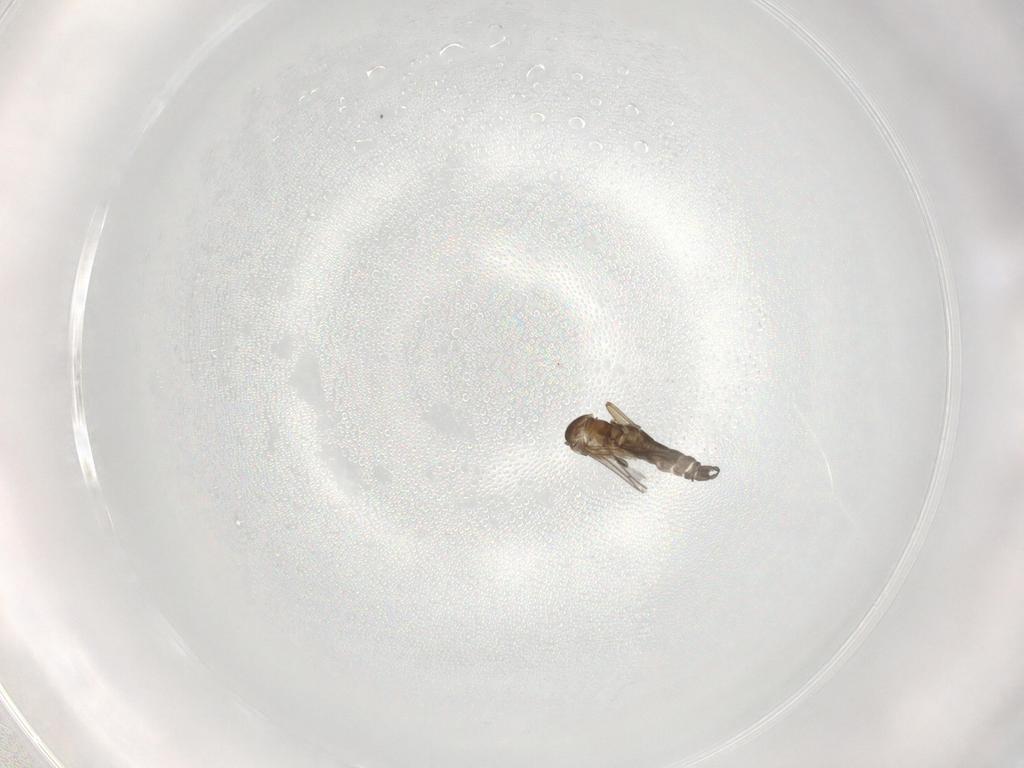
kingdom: Animalia
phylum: Arthropoda
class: Insecta
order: Diptera
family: Sciaridae
